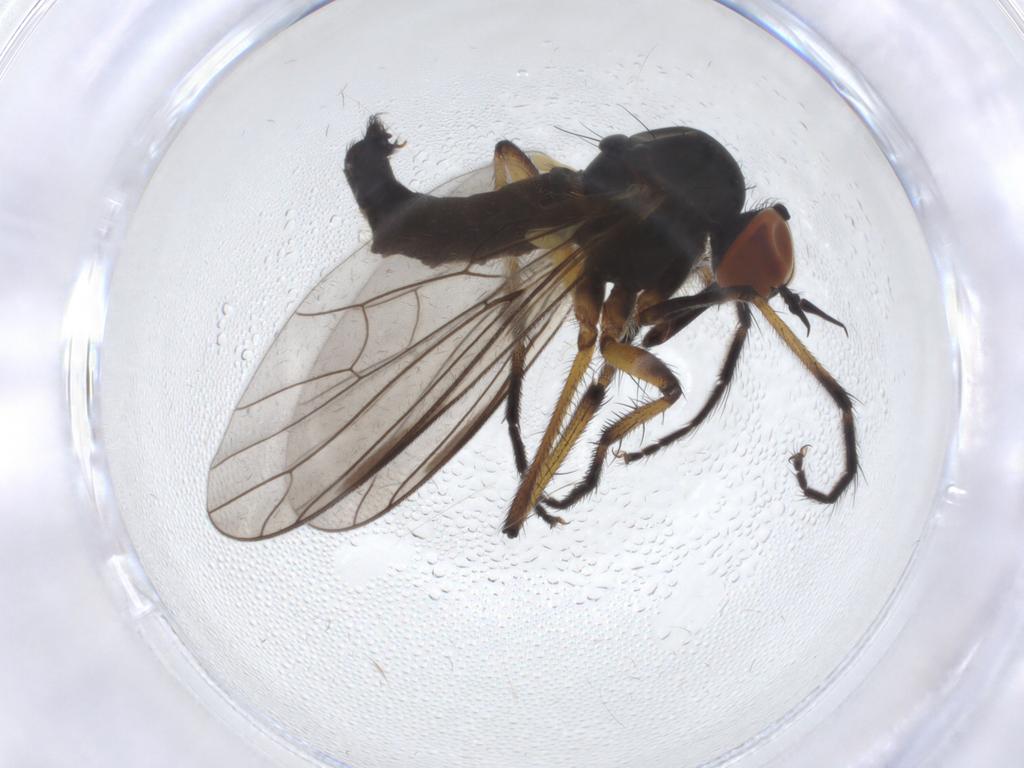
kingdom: Animalia
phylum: Arthropoda
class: Insecta
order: Diptera
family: Empididae
